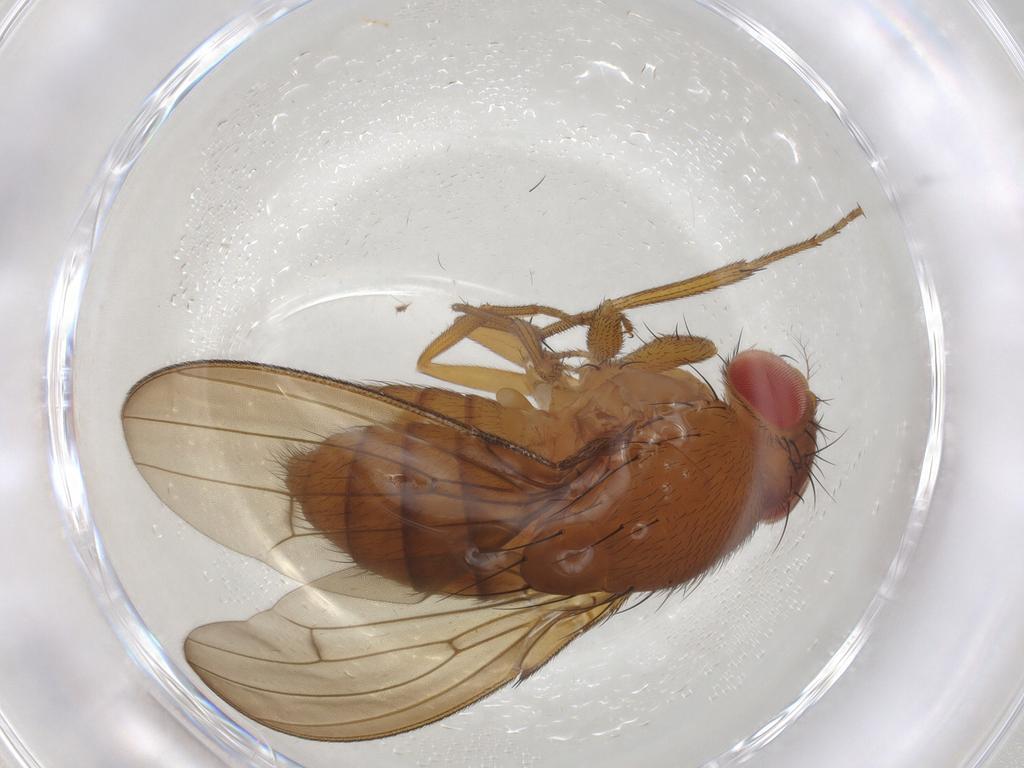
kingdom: Animalia
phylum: Arthropoda
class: Insecta
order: Diptera
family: Drosophilidae
